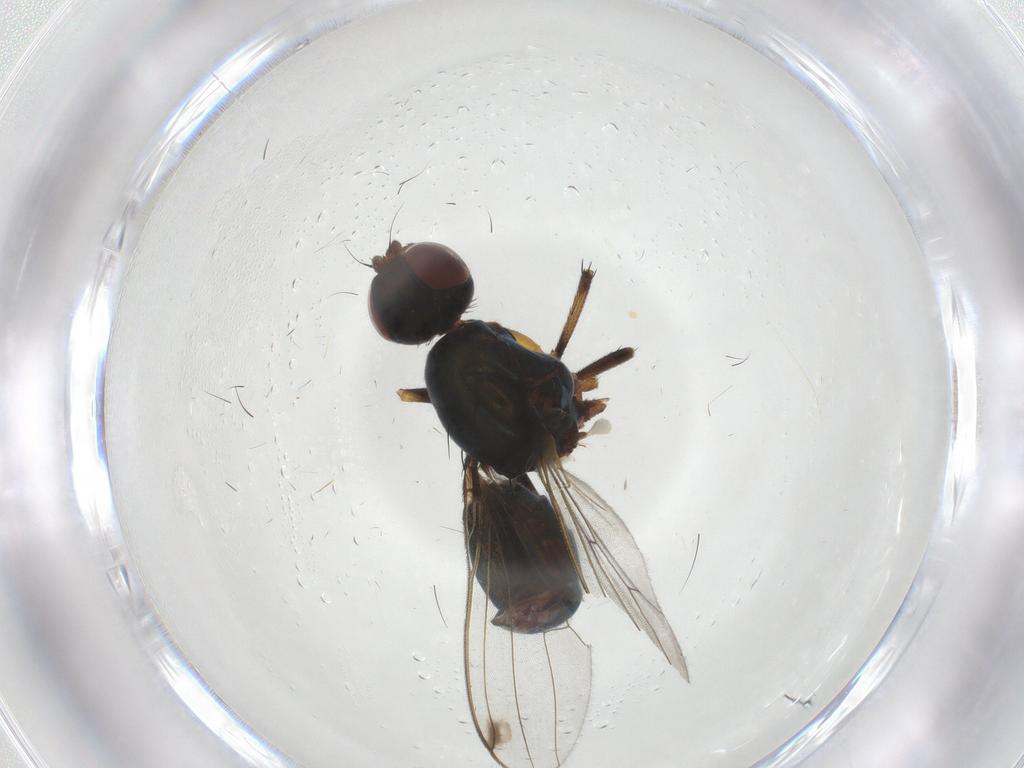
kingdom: Animalia
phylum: Arthropoda
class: Insecta
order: Diptera
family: Sepsidae
